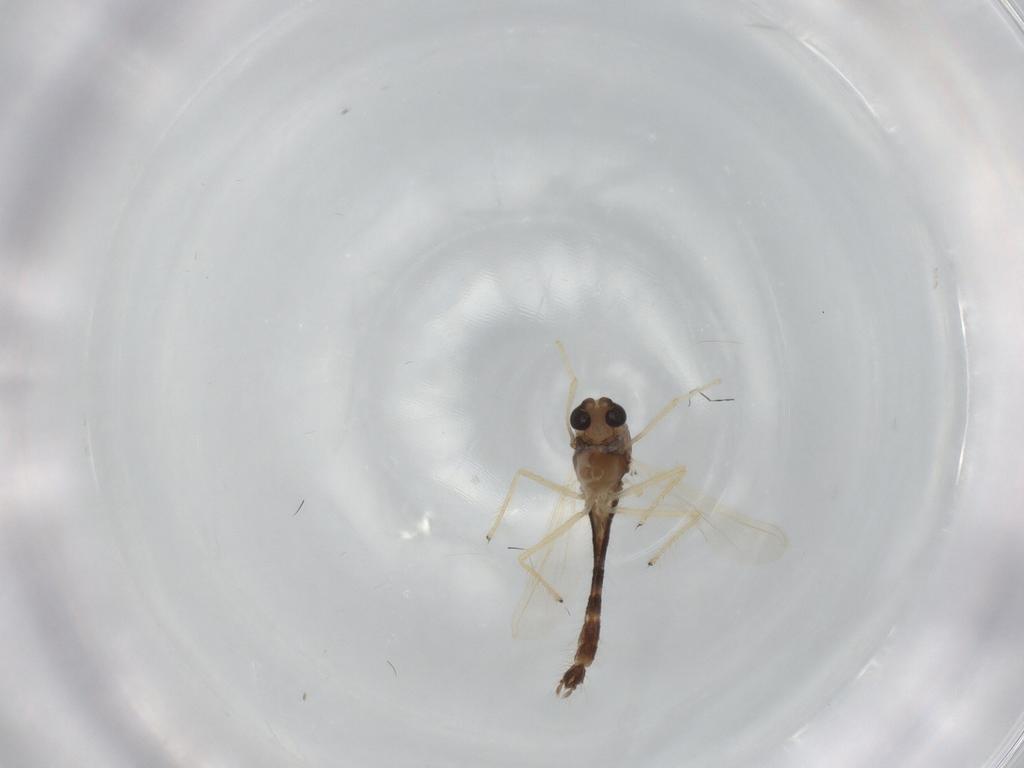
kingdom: Animalia
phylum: Arthropoda
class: Insecta
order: Diptera
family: Chironomidae
